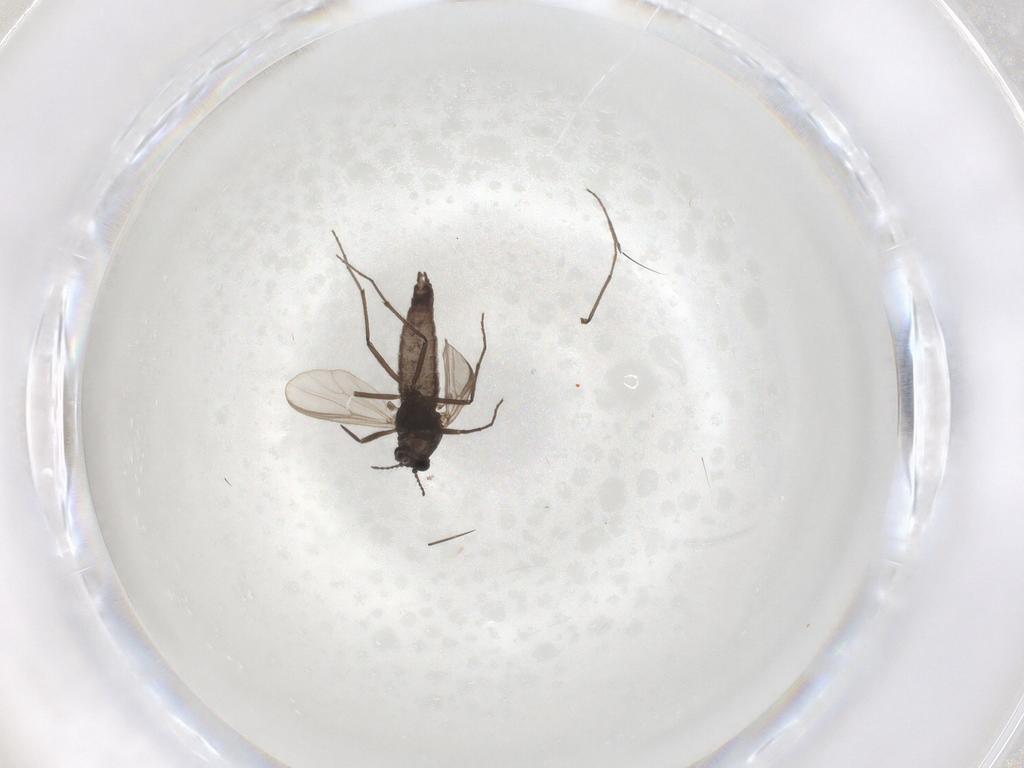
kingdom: Animalia
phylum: Arthropoda
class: Insecta
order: Diptera
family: Chironomidae
